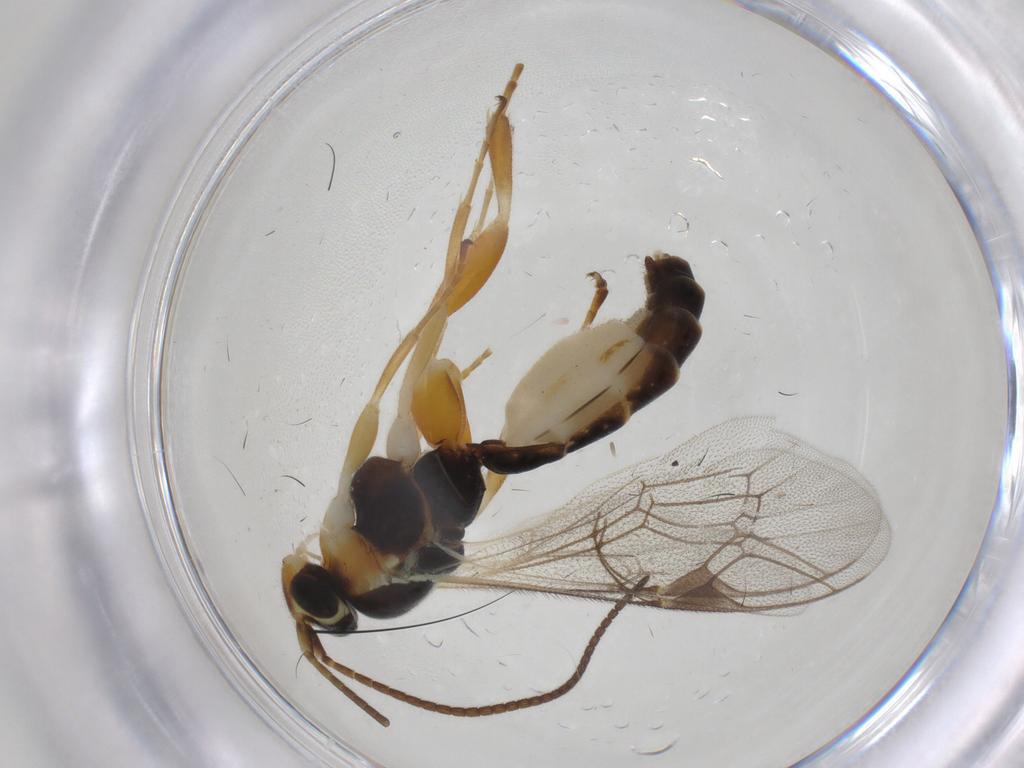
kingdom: Animalia
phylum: Arthropoda
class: Insecta
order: Hymenoptera
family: Ichneumonidae
